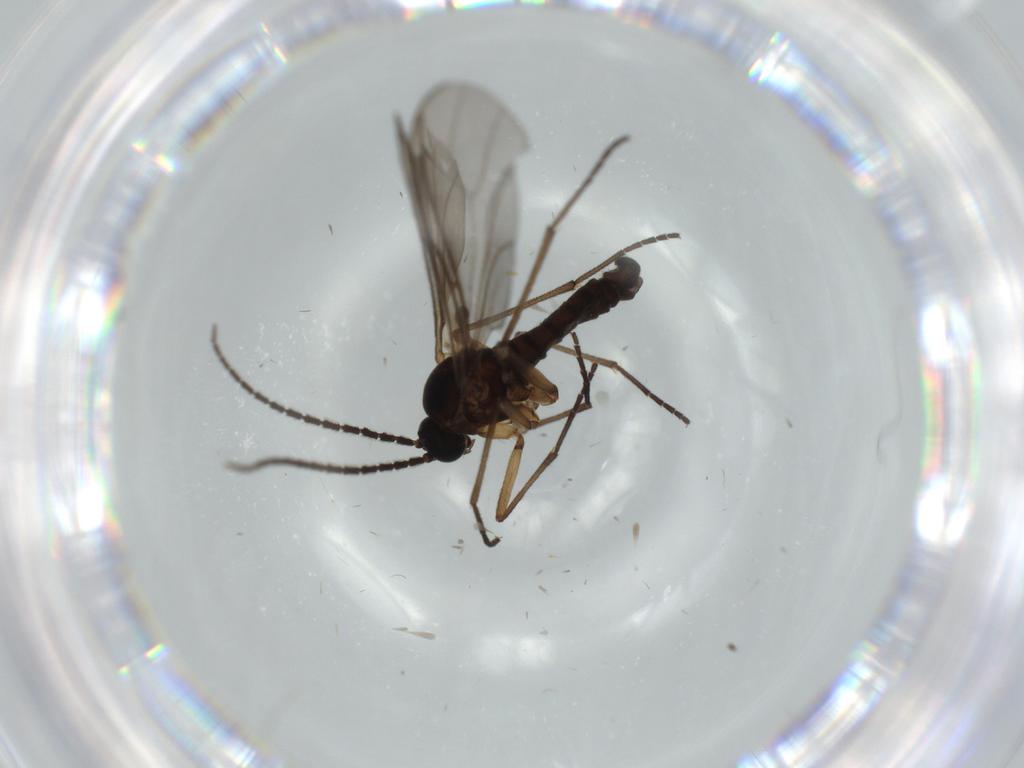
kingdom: Animalia
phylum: Arthropoda
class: Insecta
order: Diptera
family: Sciaridae
